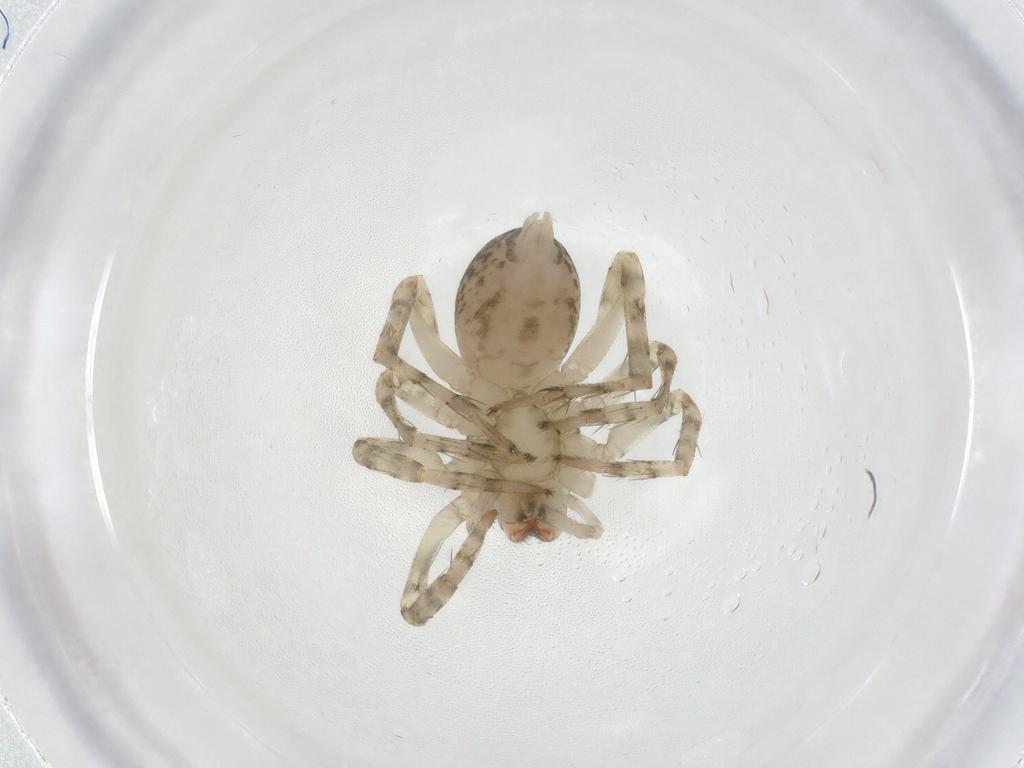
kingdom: Animalia
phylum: Arthropoda
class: Arachnida
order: Araneae
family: Anyphaenidae
